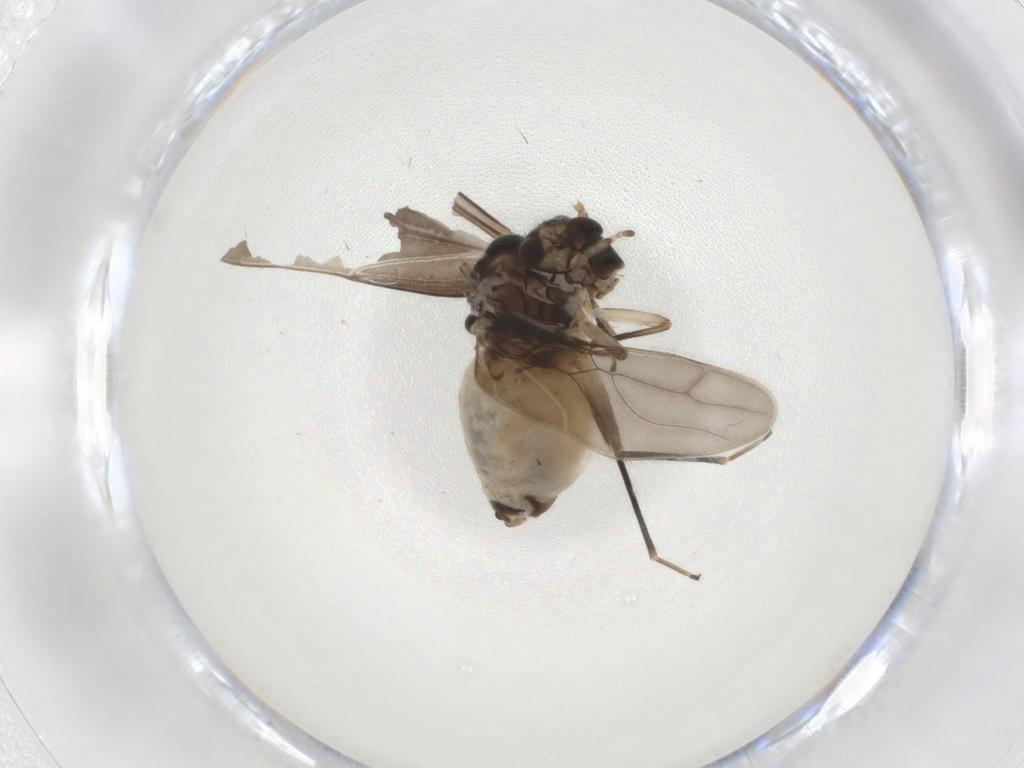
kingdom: Animalia
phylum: Arthropoda
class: Insecta
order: Psocodea
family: Caeciliusidae
